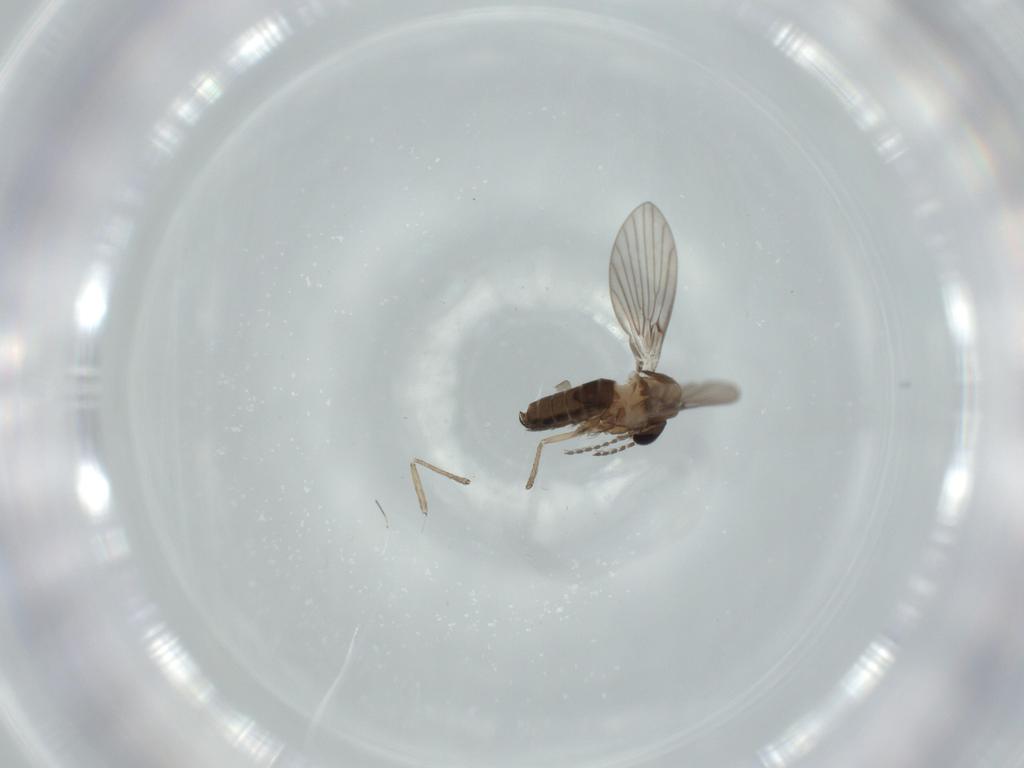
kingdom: Animalia
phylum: Arthropoda
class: Insecta
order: Diptera
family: Psychodidae
